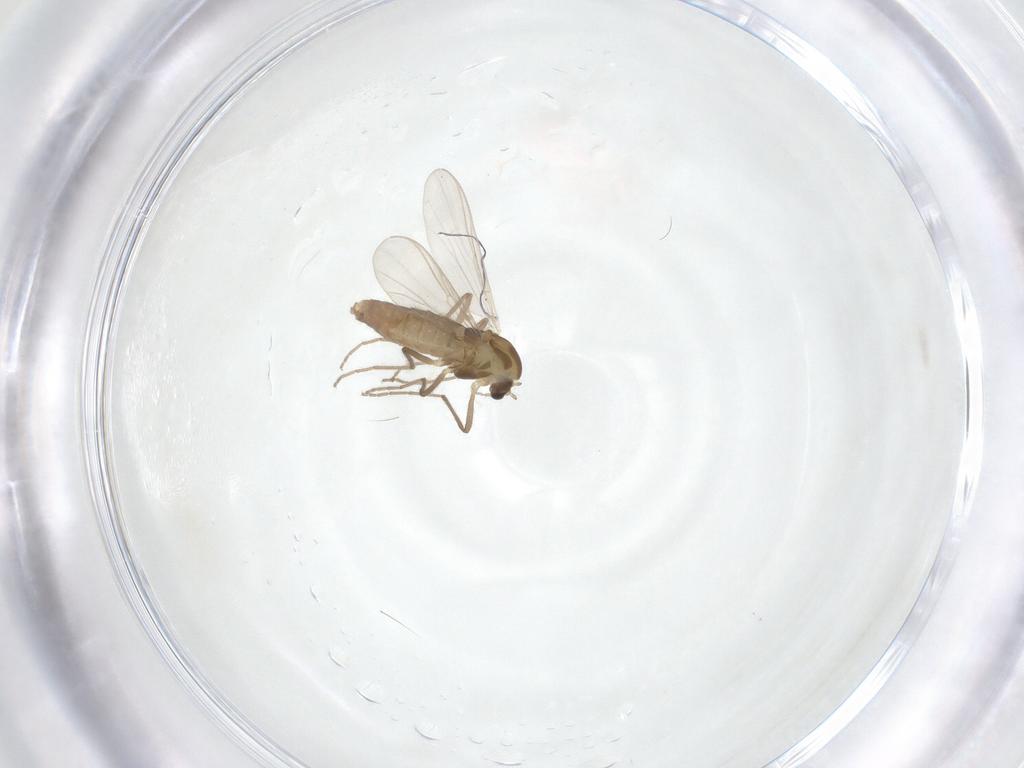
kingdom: Animalia
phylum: Arthropoda
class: Insecta
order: Diptera
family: Chironomidae
